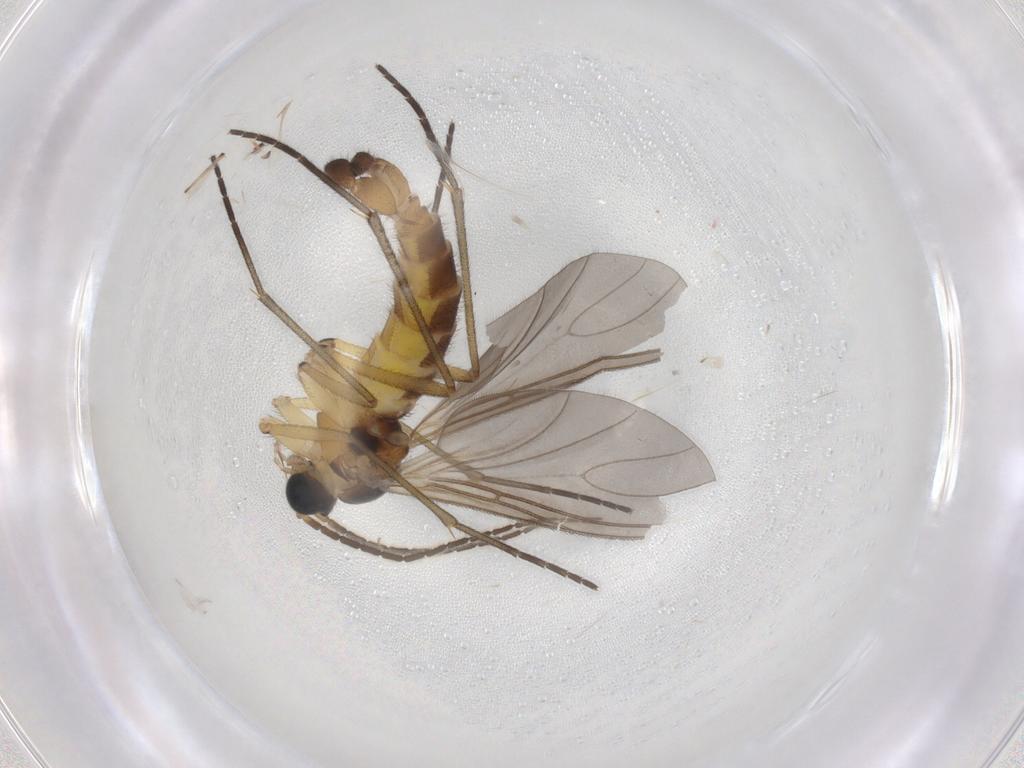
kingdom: Animalia
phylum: Arthropoda
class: Insecta
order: Diptera
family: Sciaridae
